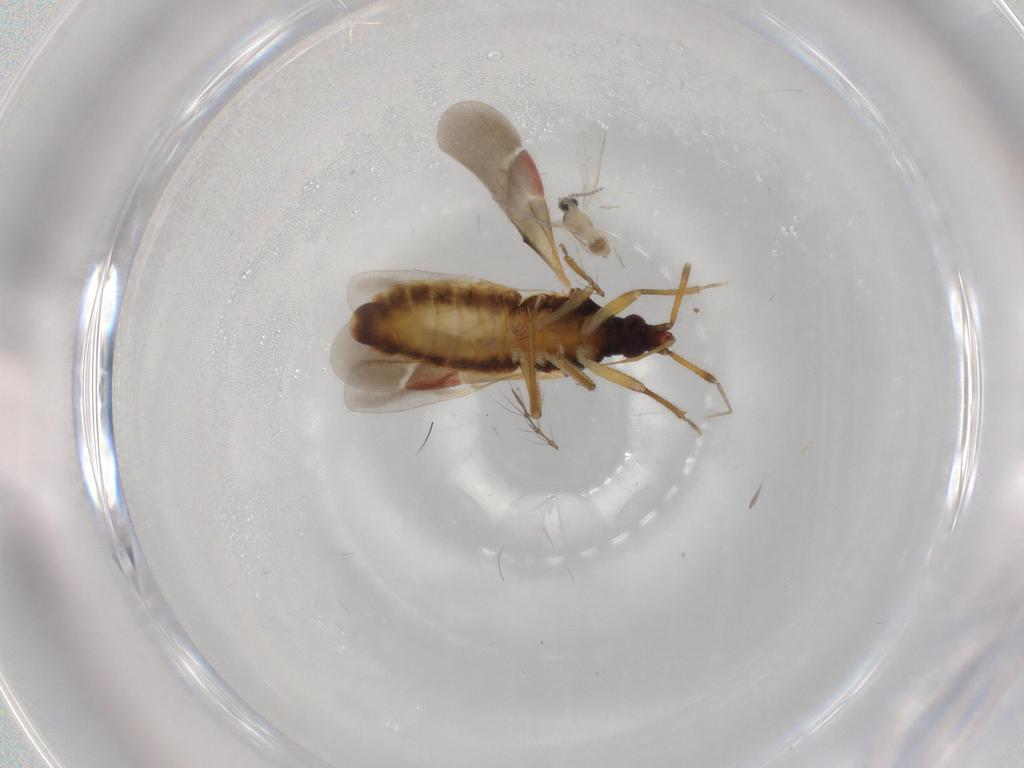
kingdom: Animalia
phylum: Arthropoda
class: Insecta
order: Diptera
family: Cecidomyiidae
